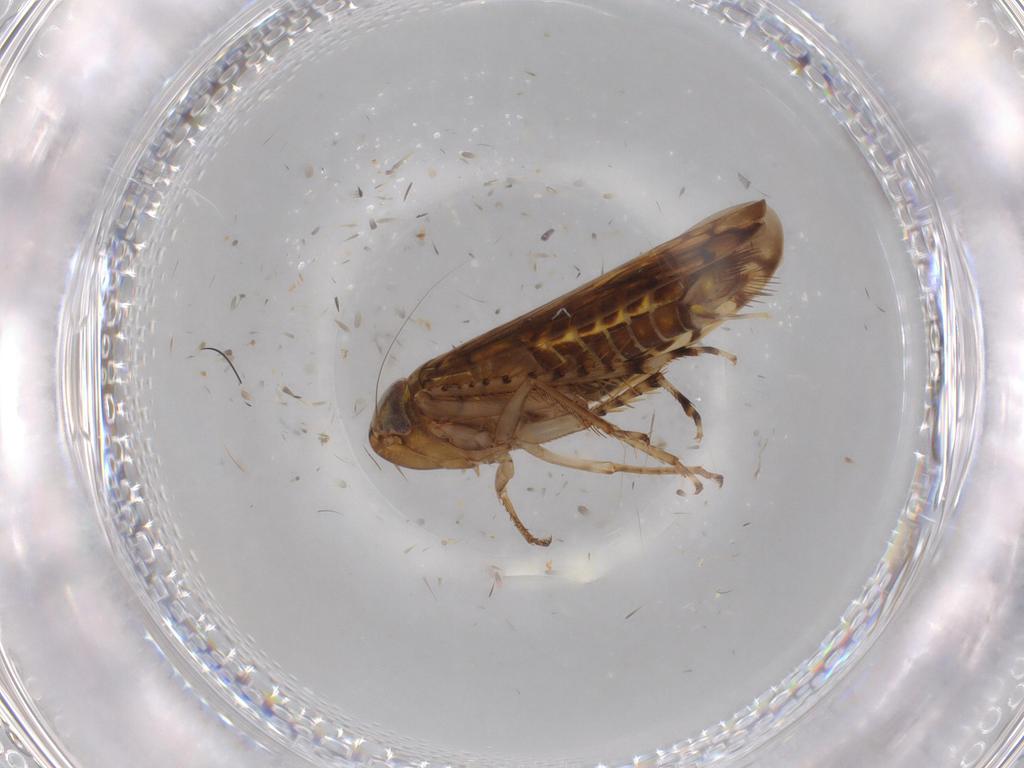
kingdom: Animalia
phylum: Arthropoda
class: Insecta
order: Hemiptera
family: Cicadellidae
